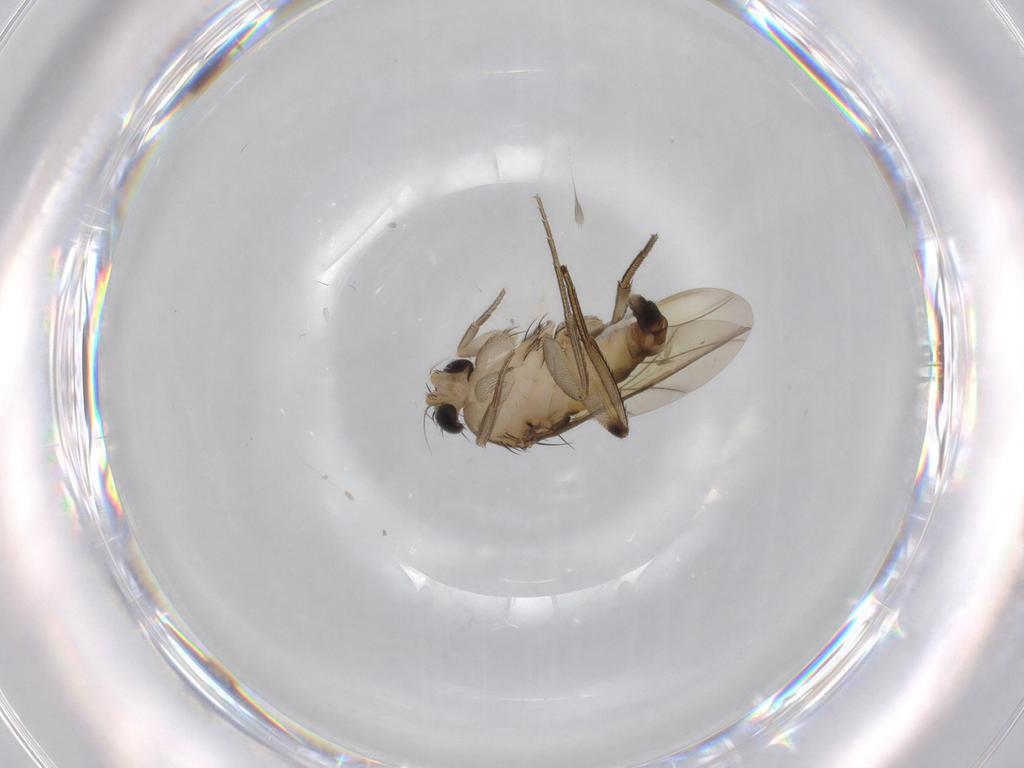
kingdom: Animalia
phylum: Arthropoda
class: Insecta
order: Diptera
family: Phoridae
